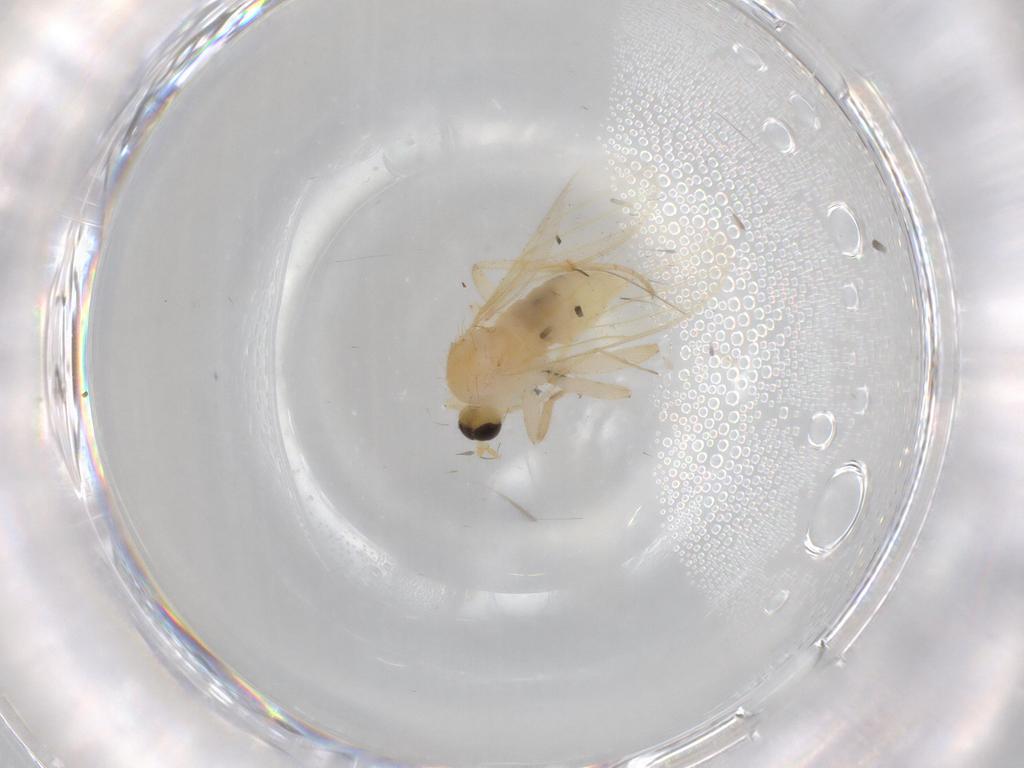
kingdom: Animalia
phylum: Arthropoda
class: Insecta
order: Diptera
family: Hybotidae
